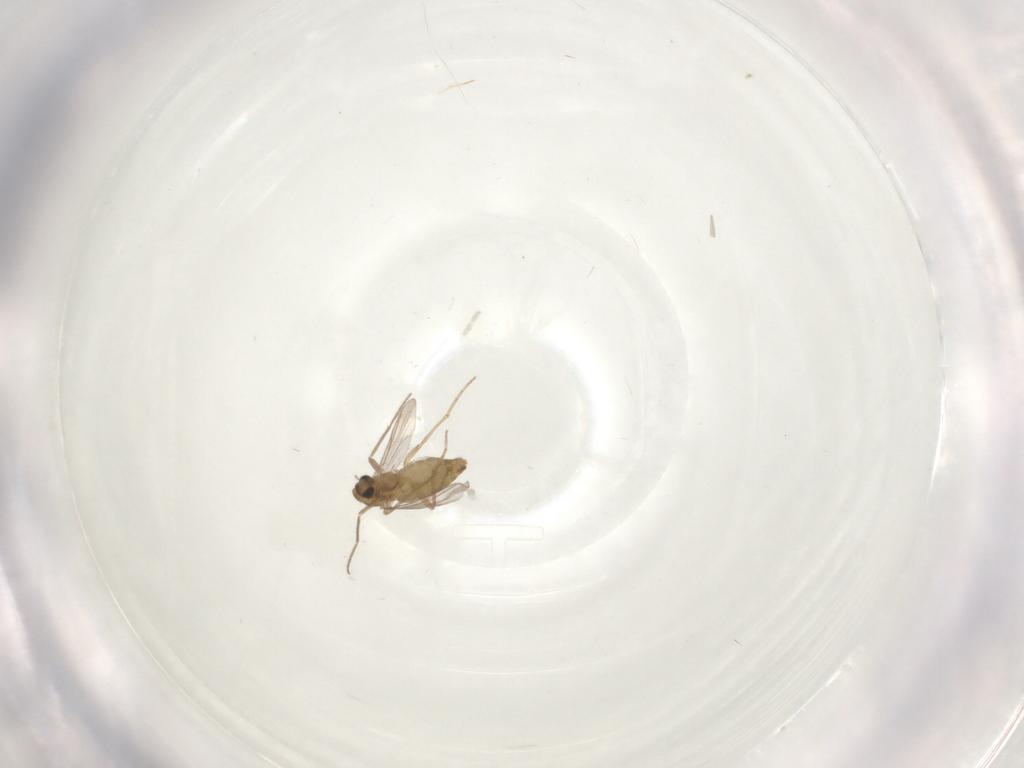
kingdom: Animalia
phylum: Arthropoda
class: Insecta
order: Diptera
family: Chironomidae
